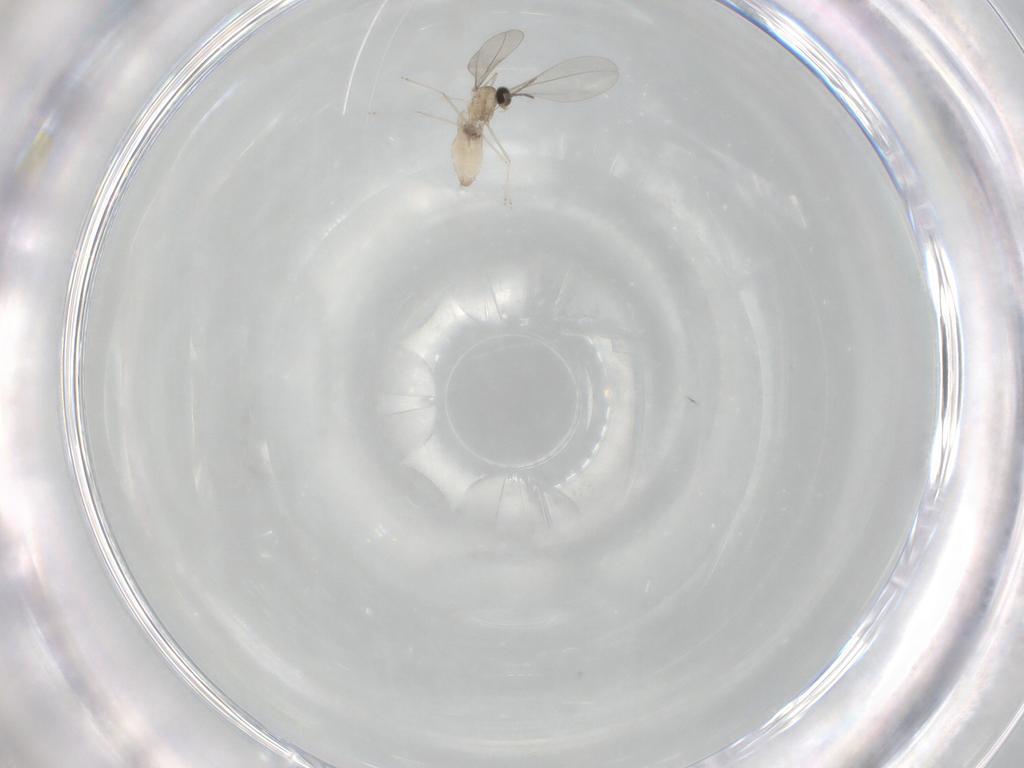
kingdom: Animalia
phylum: Arthropoda
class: Insecta
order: Diptera
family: Cecidomyiidae
